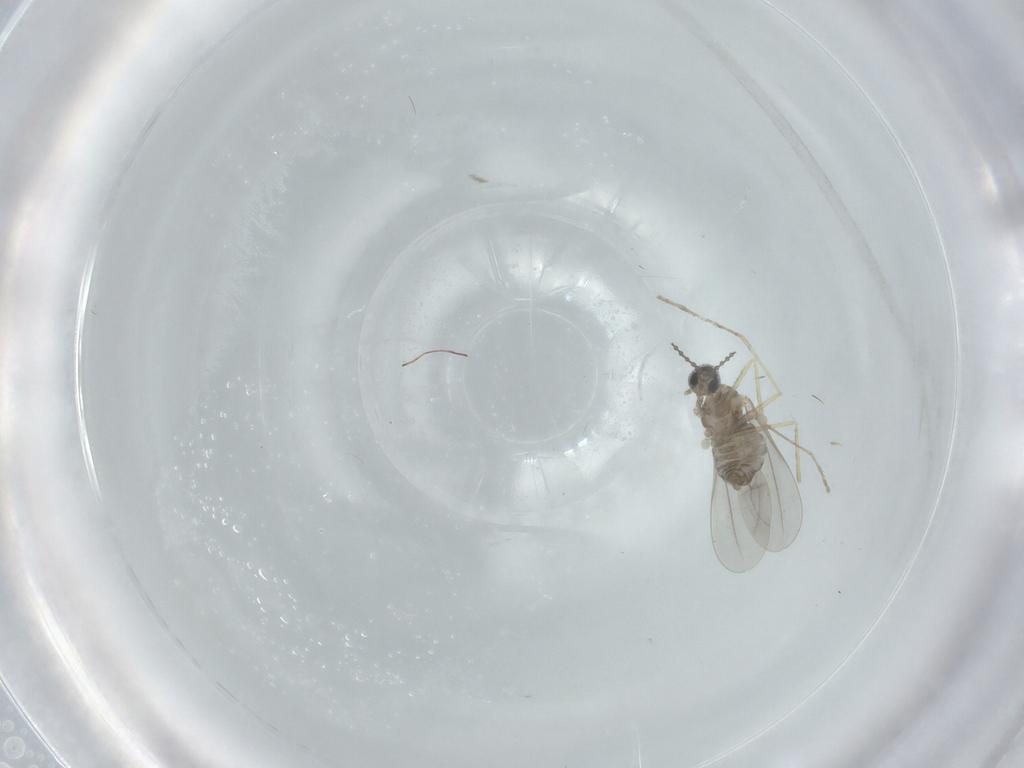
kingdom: Animalia
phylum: Arthropoda
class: Insecta
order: Diptera
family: Cecidomyiidae
